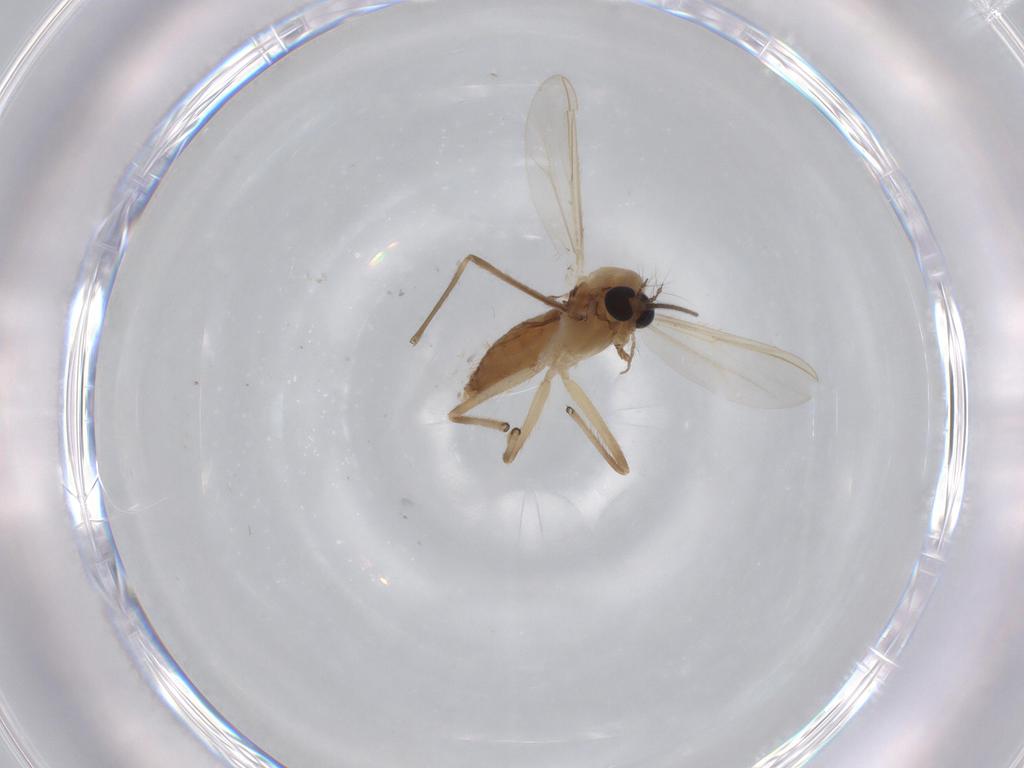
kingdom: Animalia
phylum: Arthropoda
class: Insecta
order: Diptera
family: Chironomidae
